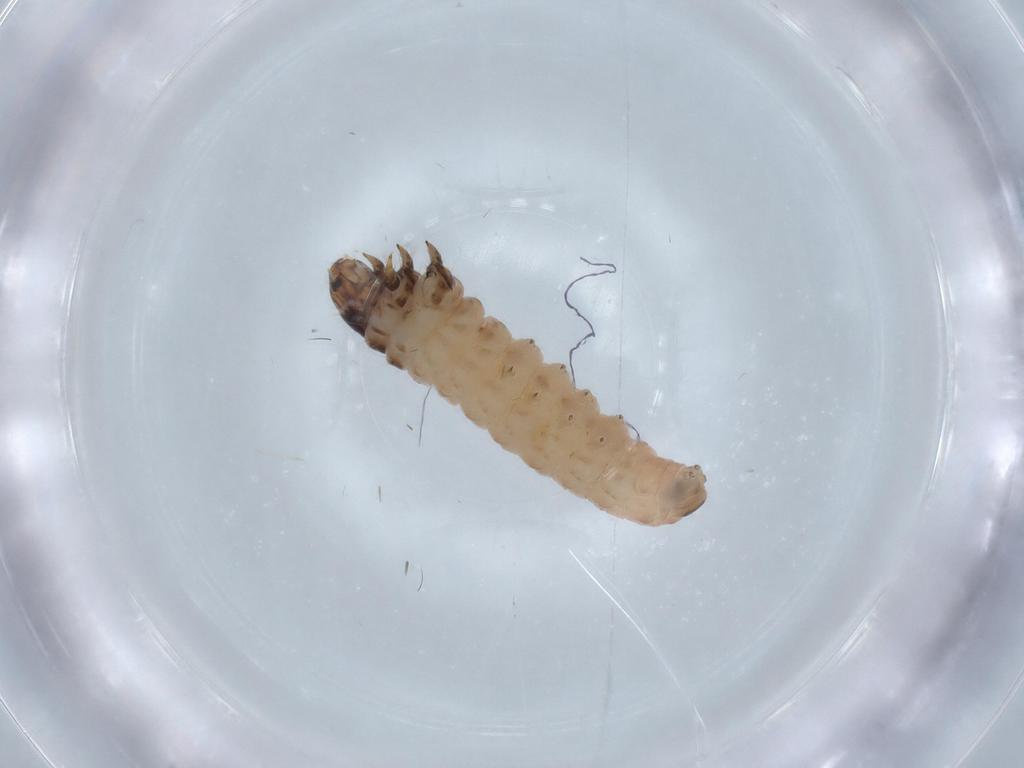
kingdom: Animalia
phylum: Arthropoda
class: Insecta
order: Lepidoptera
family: Psychidae
